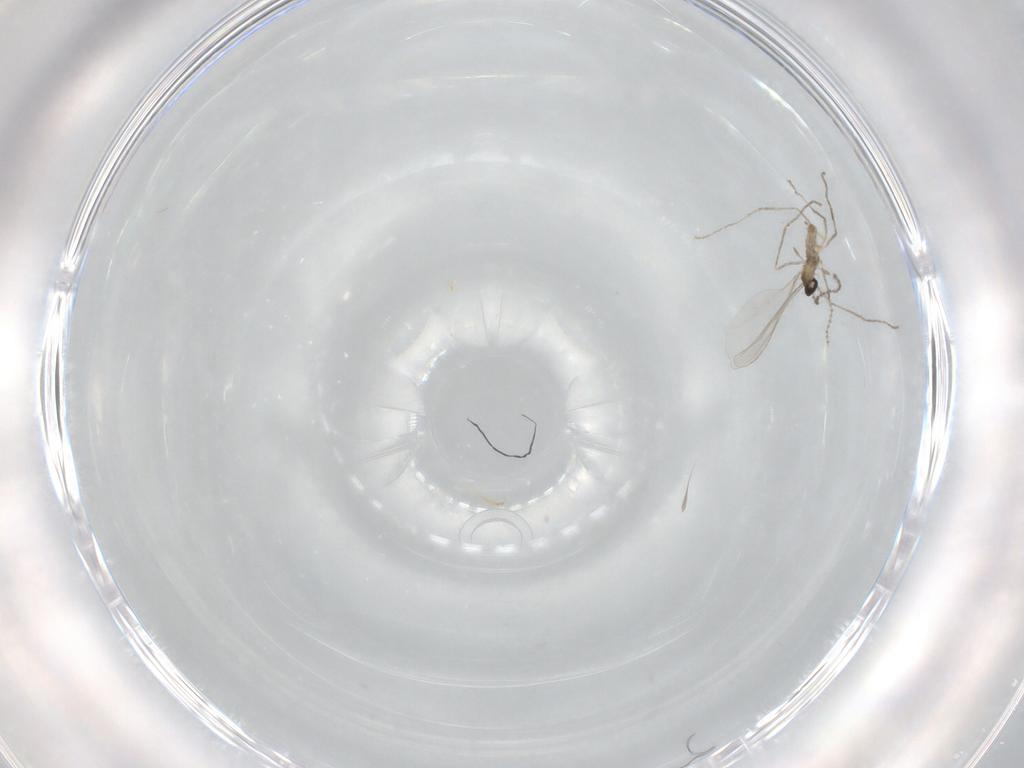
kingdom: Animalia
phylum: Arthropoda
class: Insecta
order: Diptera
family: Cecidomyiidae
